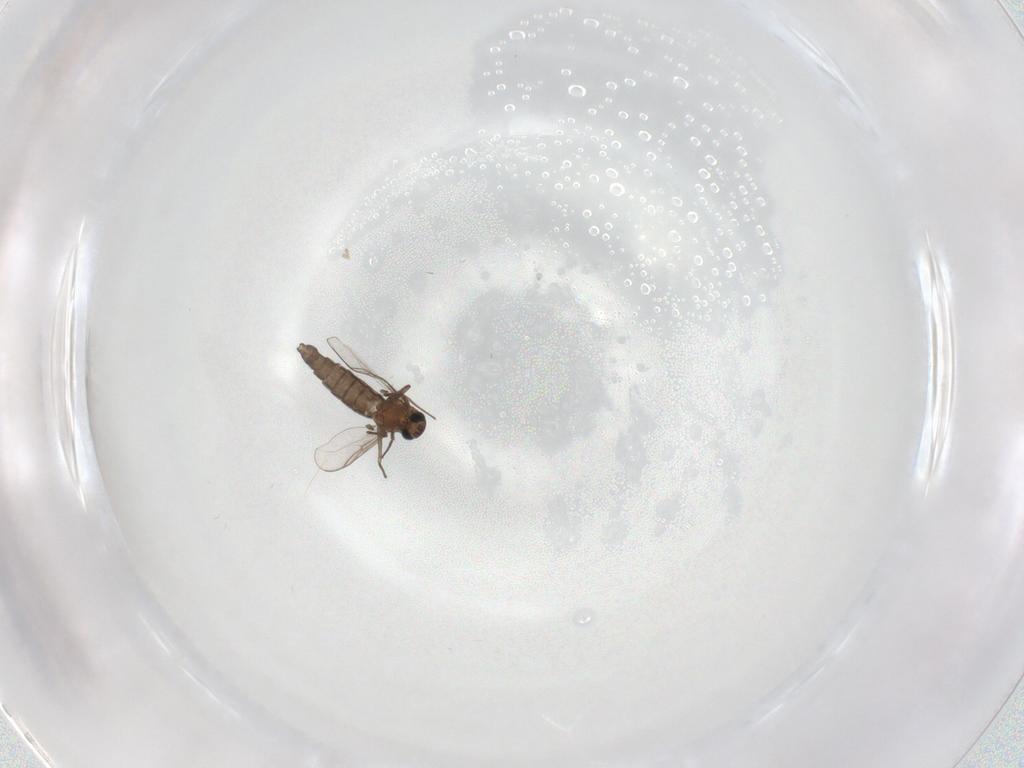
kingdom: Animalia
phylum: Arthropoda
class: Insecta
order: Diptera
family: Chironomidae
